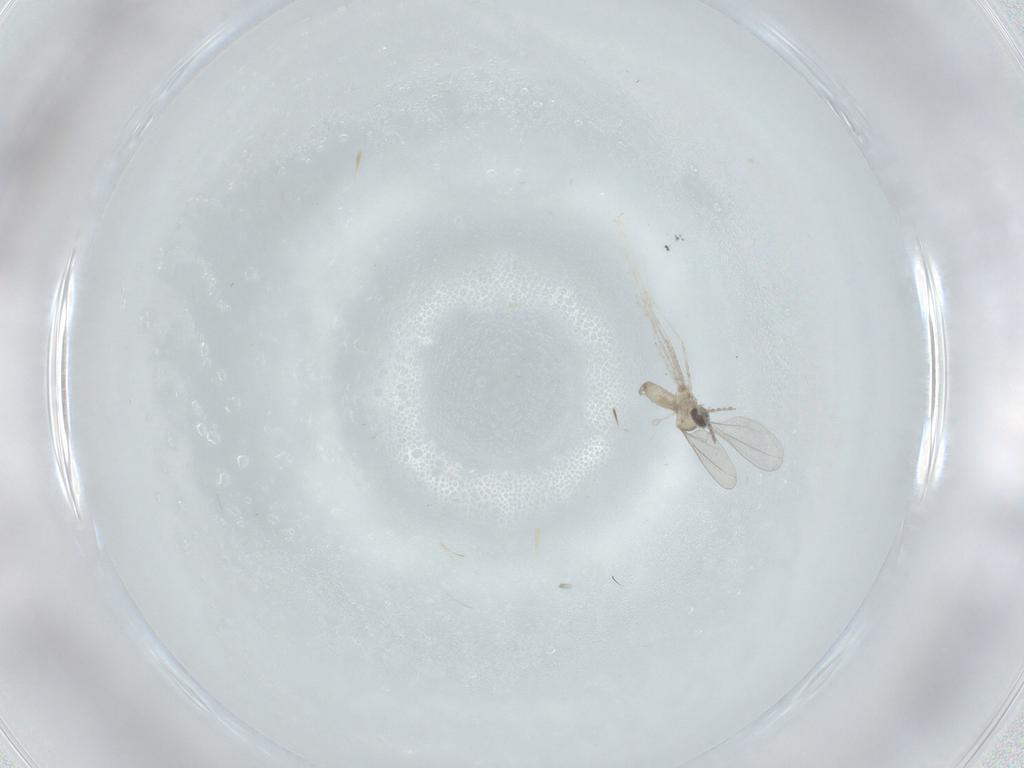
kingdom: Animalia
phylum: Arthropoda
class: Insecta
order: Diptera
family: Cecidomyiidae
